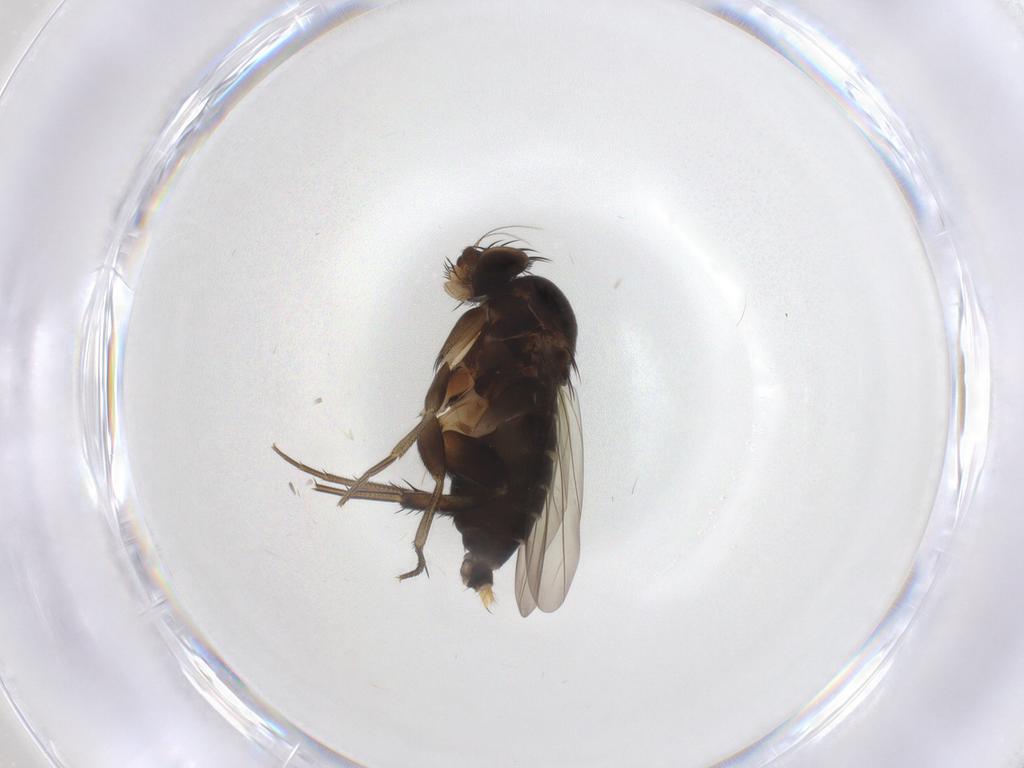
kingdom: Animalia
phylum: Arthropoda
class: Insecta
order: Diptera
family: Phoridae
